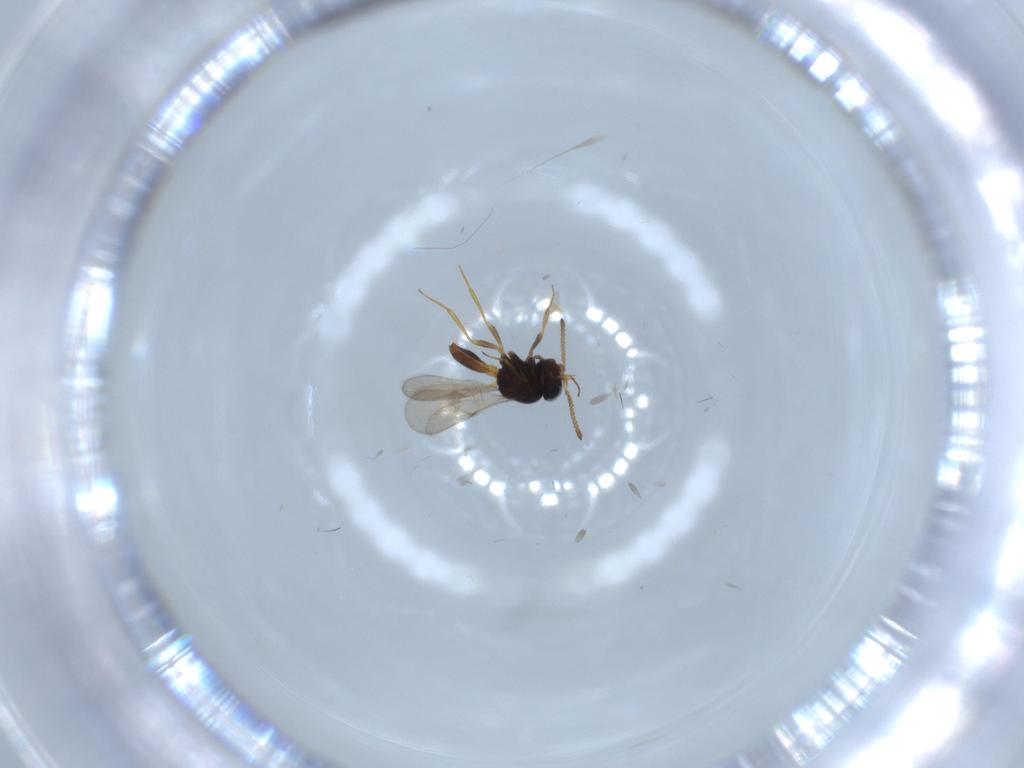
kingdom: Animalia
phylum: Arthropoda
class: Insecta
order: Hymenoptera
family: Scelionidae
